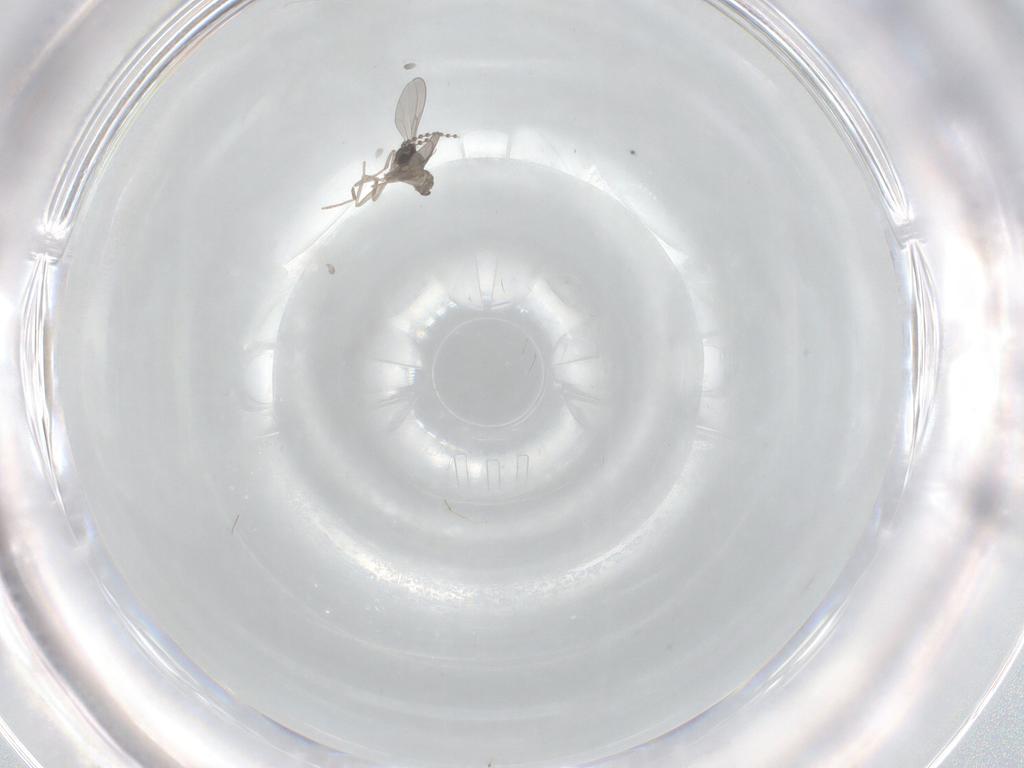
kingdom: Animalia
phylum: Arthropoda
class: Insecta
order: Diptera
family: Cecidomyiidae
